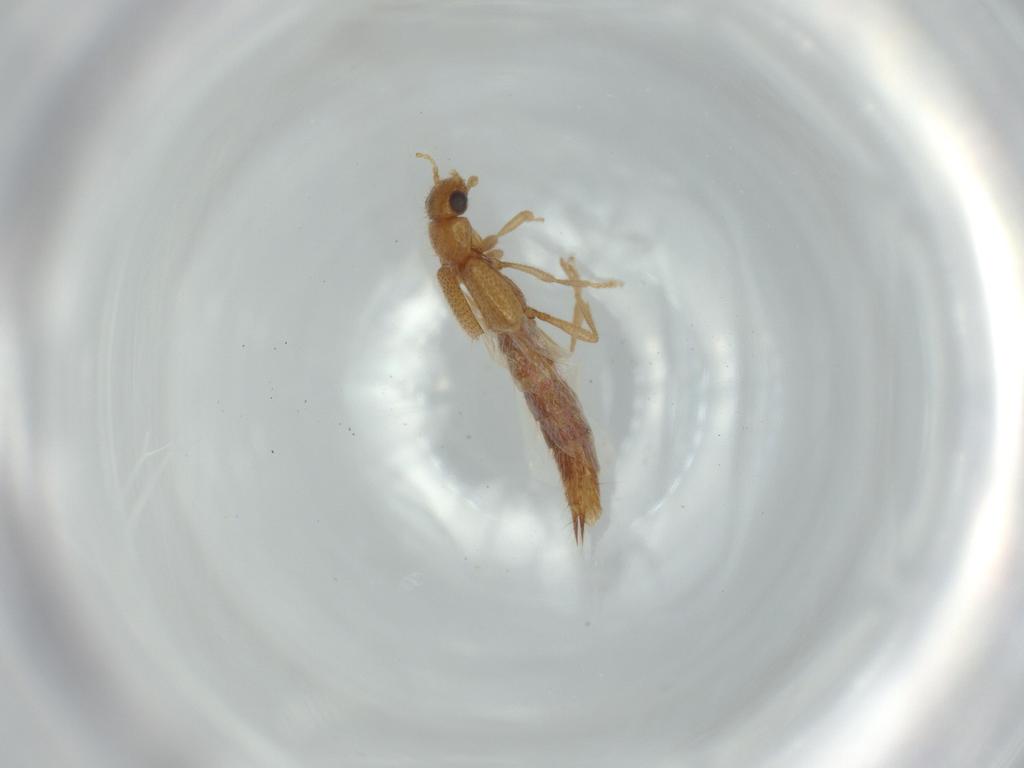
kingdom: Animalia
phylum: Arthropoda
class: Insecta
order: Coleoptera
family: Staphylinidae
